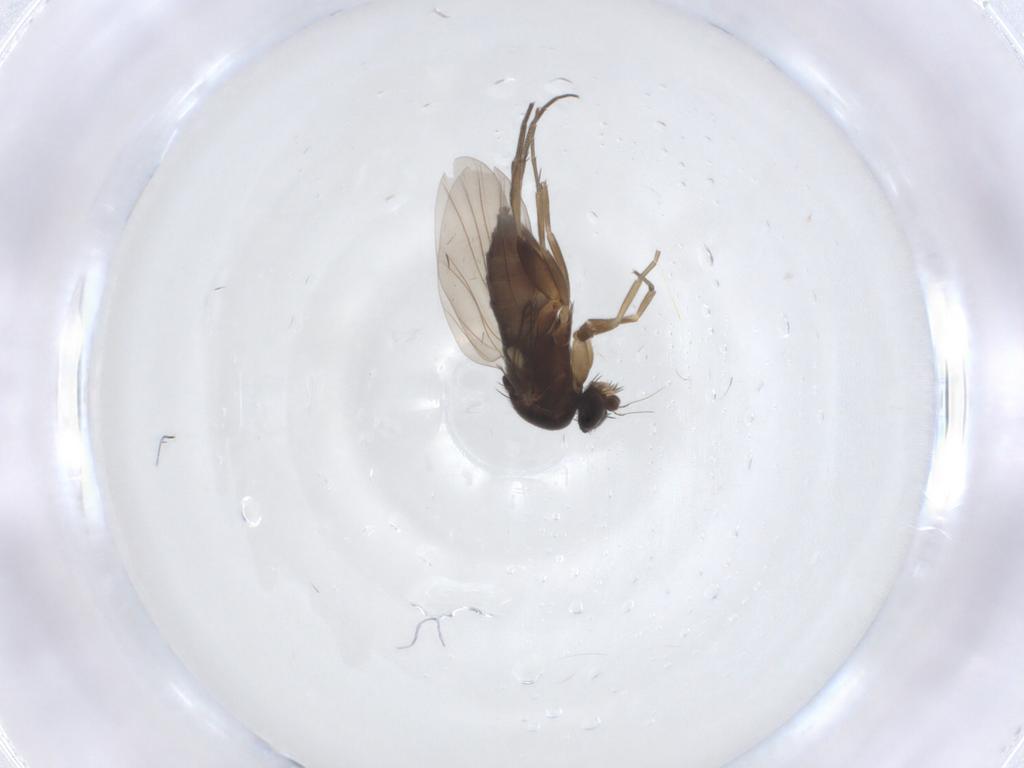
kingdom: Animalia
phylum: Arthropoda
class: Insecta
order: Diptera
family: Phoridae
